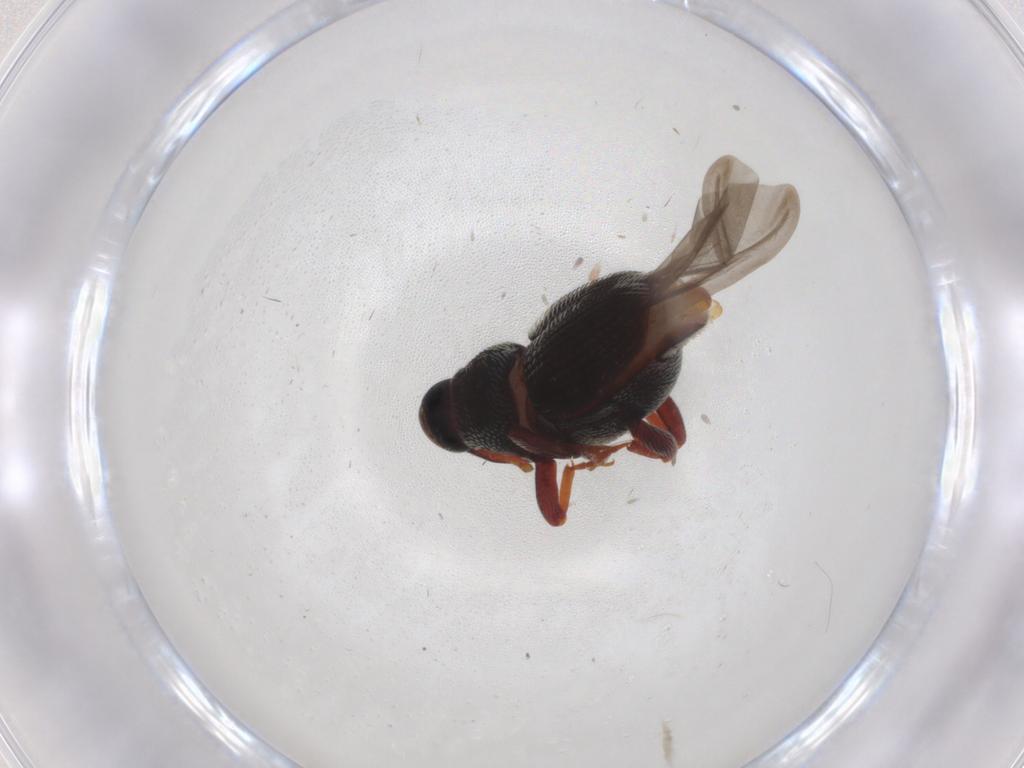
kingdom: Animalia
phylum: Arthropoda
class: Insecta
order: Coleoptera
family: Curculionidae
